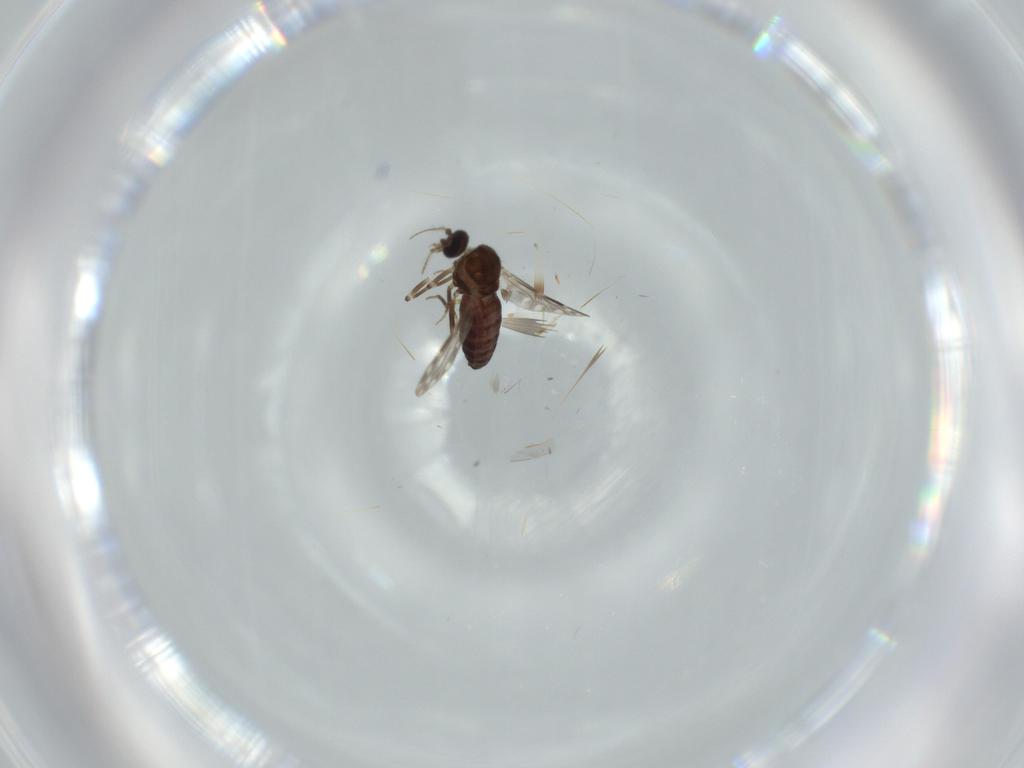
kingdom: Animalia
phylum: Arthropoda
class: Insecta
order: Diptera
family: Ceratopogonidae
